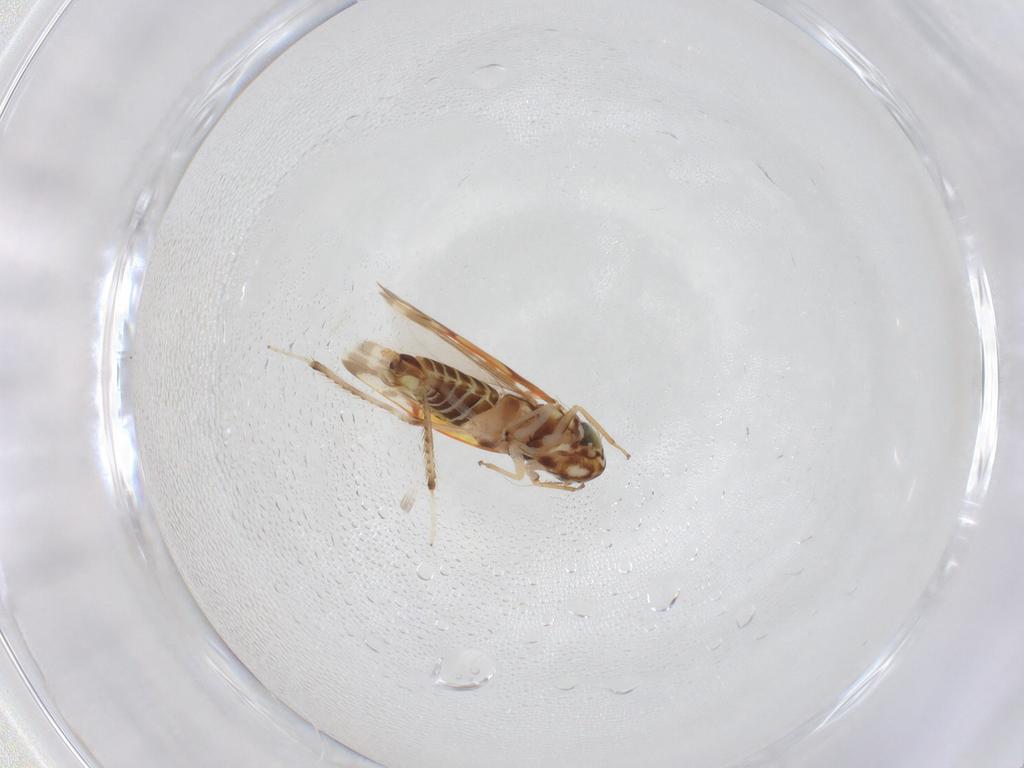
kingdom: Animalia
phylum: Arthropoda
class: Insecta
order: Hemiptera
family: Cicadellidae
